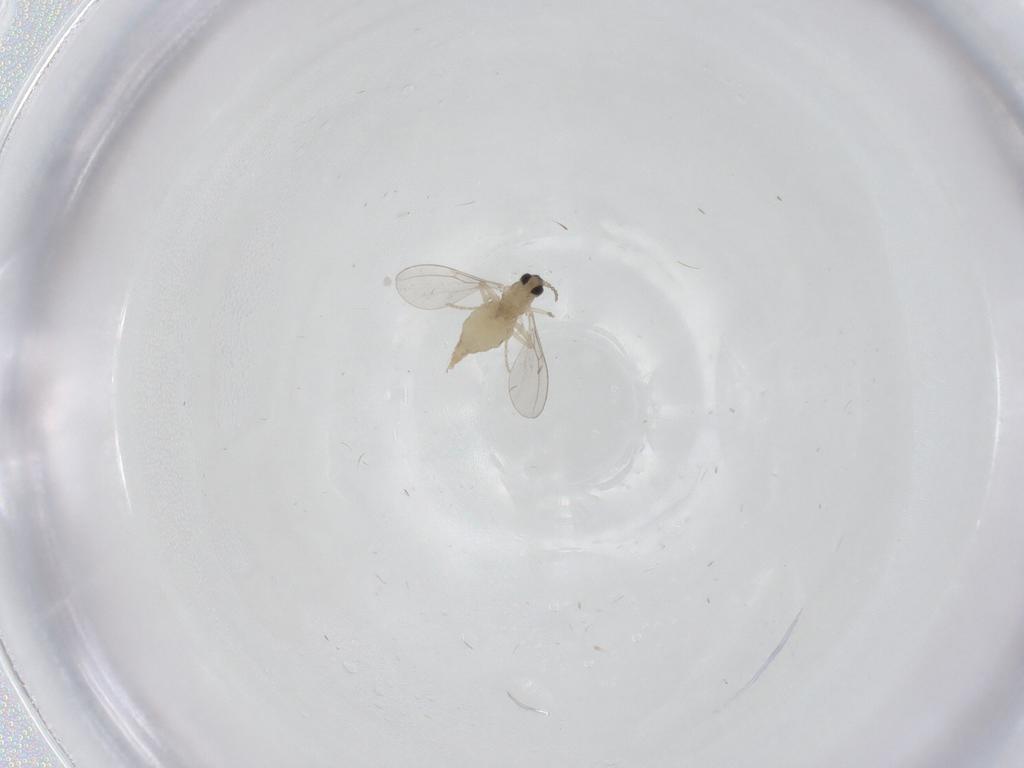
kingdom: Animalia
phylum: Arthropoda
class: Insecta
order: Diptera
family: Cecidomyiidae
